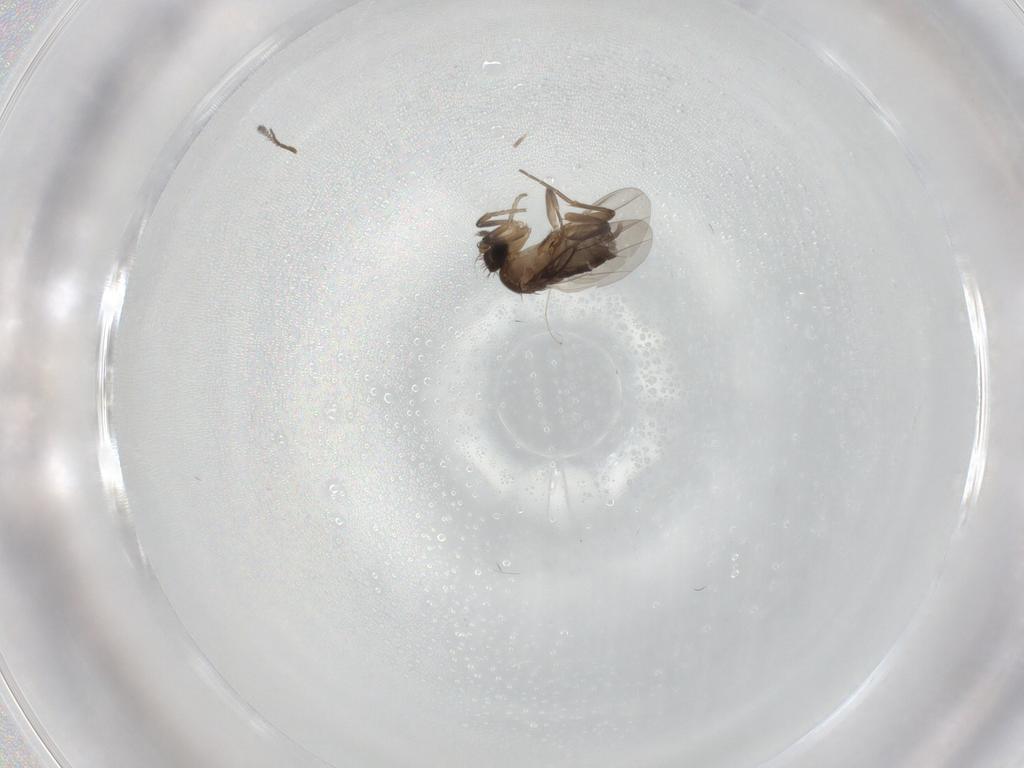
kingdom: Animalia
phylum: Arthropoda
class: Insecta
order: Diptera
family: Phoridae
